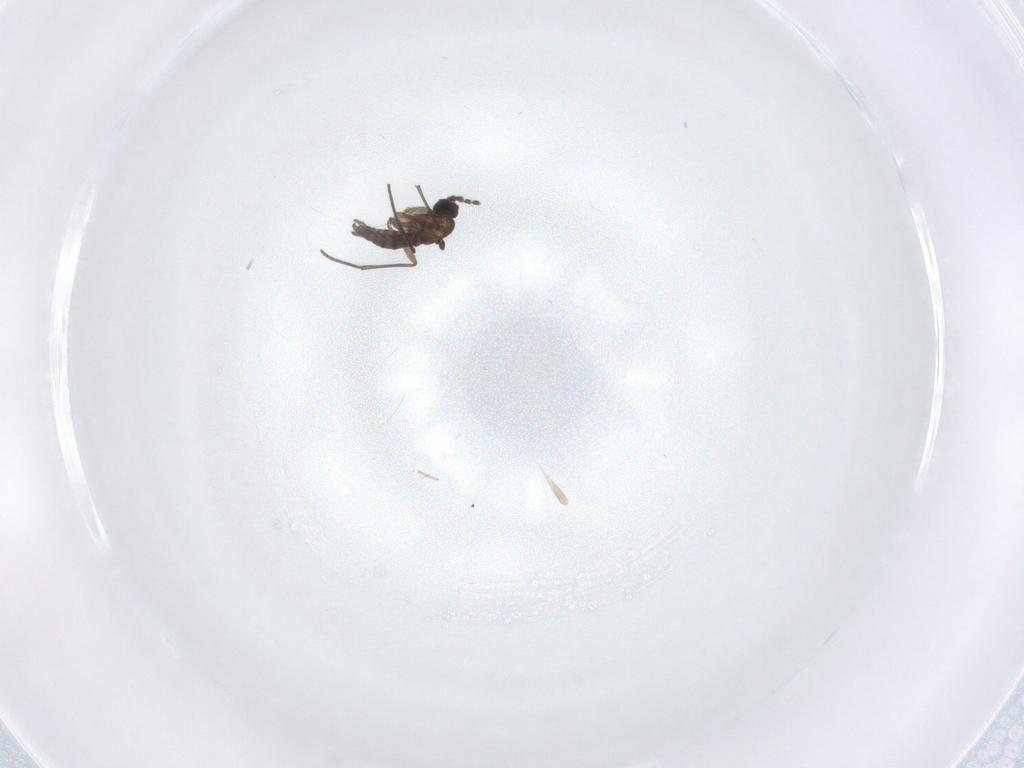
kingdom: Animalia
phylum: Arthropoda
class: Insecta
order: Diptera
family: Chironomidae
